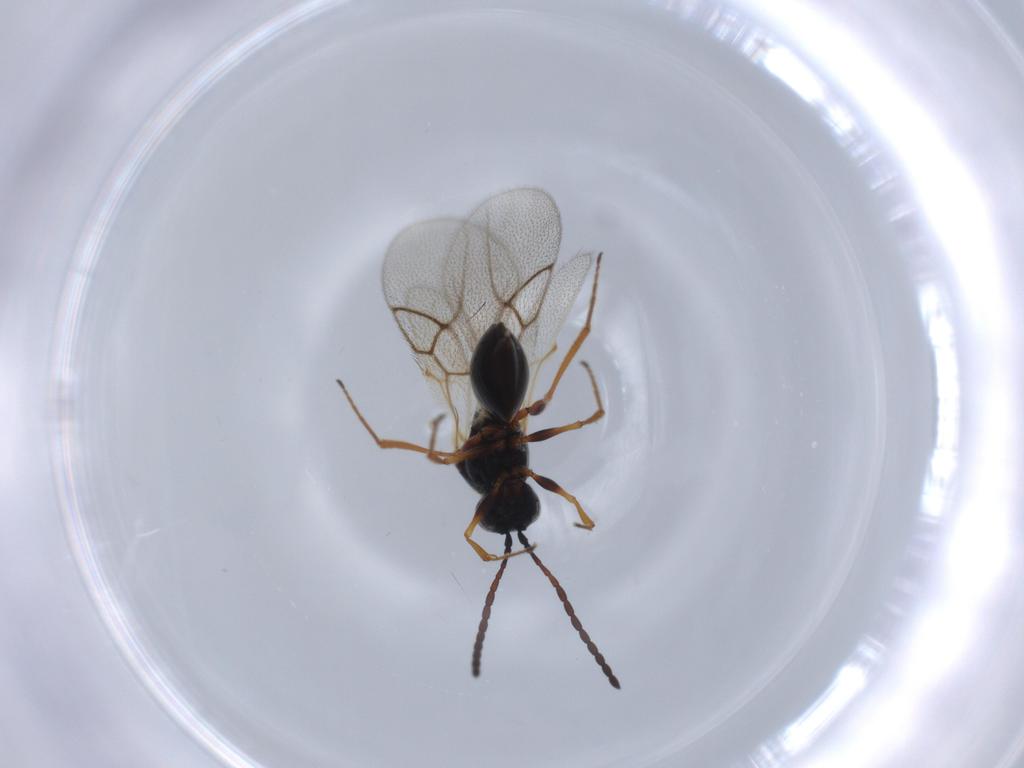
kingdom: Animalia
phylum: Arthropoda
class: Insecta
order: Hymenoptera
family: Figitidae
